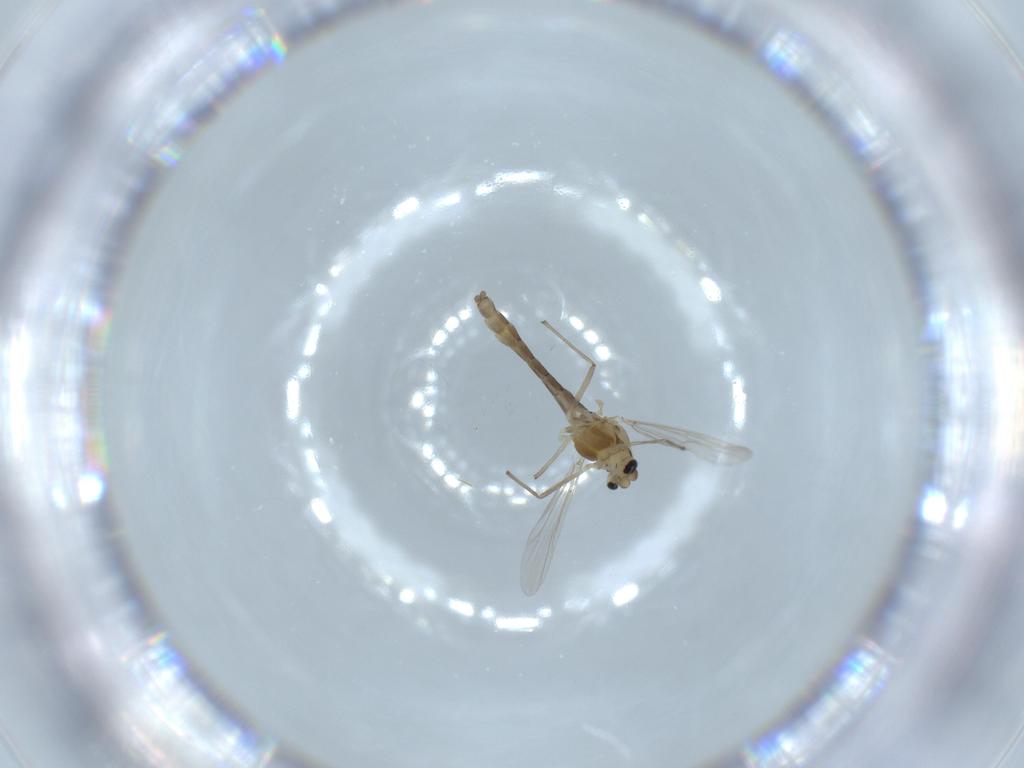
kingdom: Animalia
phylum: Arthropoda
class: Insecta
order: Diptera
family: Chironomidae
